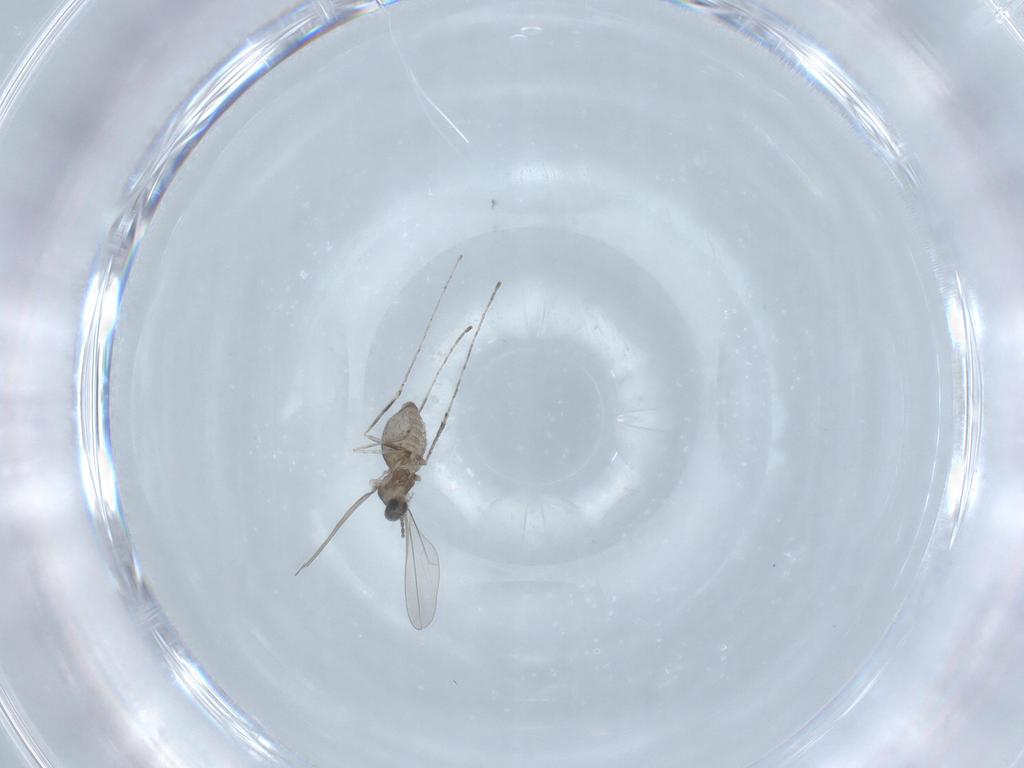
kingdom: Animalia
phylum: Arthropoda
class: Insecta
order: Diptera
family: Cecidomyiidae
